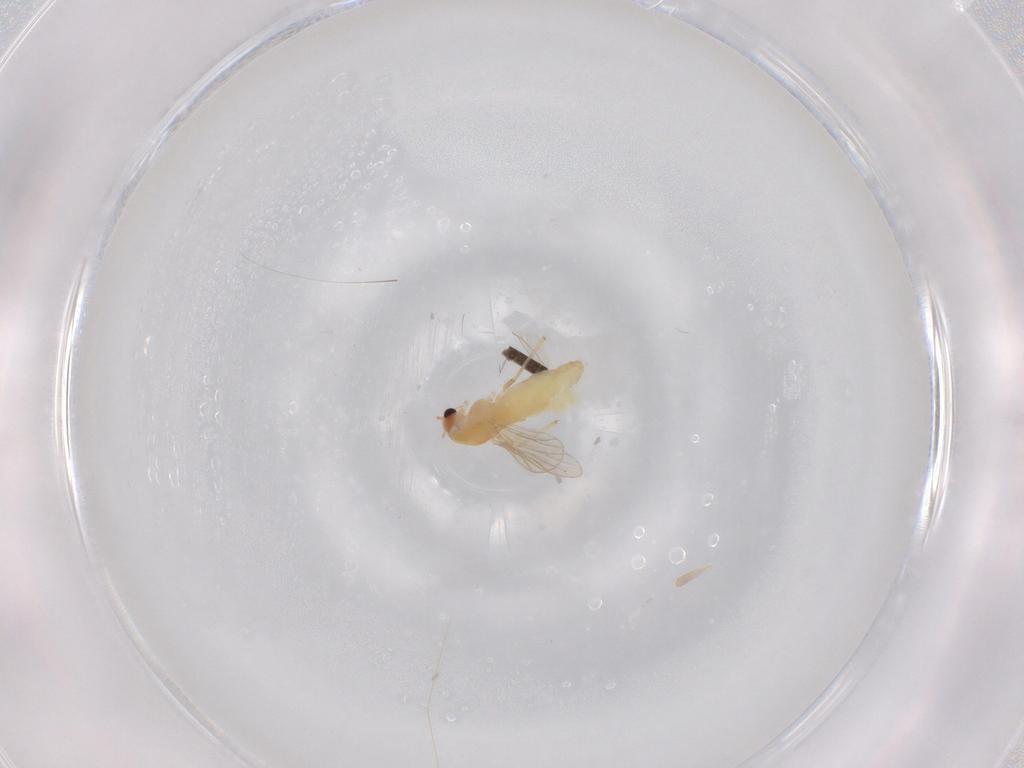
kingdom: Animalia
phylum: Arthropoda
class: Insecta
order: Diptera
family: Chironomidae
